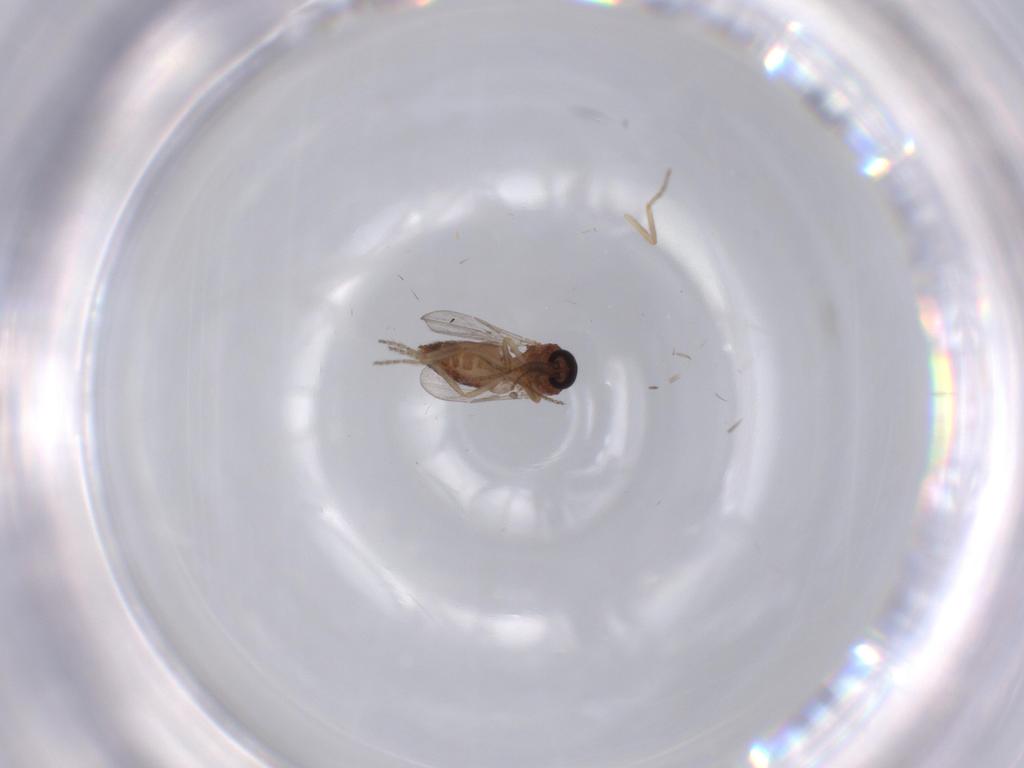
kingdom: Animalia
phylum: Arthropoda
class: Insecta
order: Diptera
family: Ceratopogonidae
